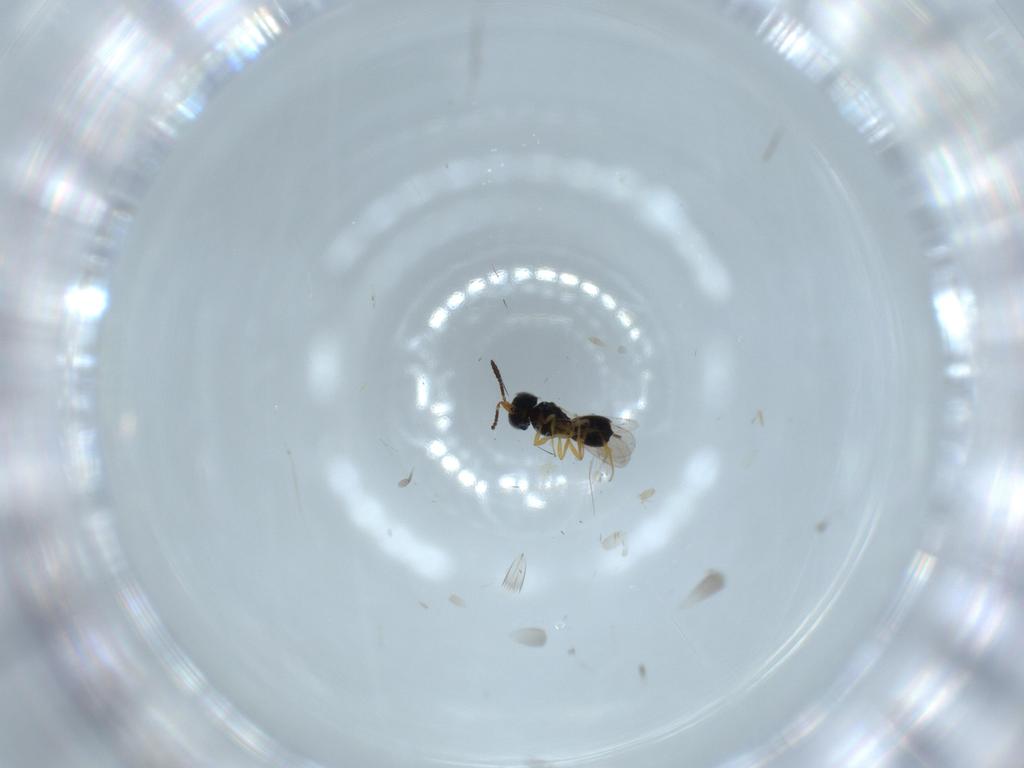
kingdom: Animalia
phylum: Arthropoda
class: Insecta
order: Hymenoptera
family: Scelionidae
